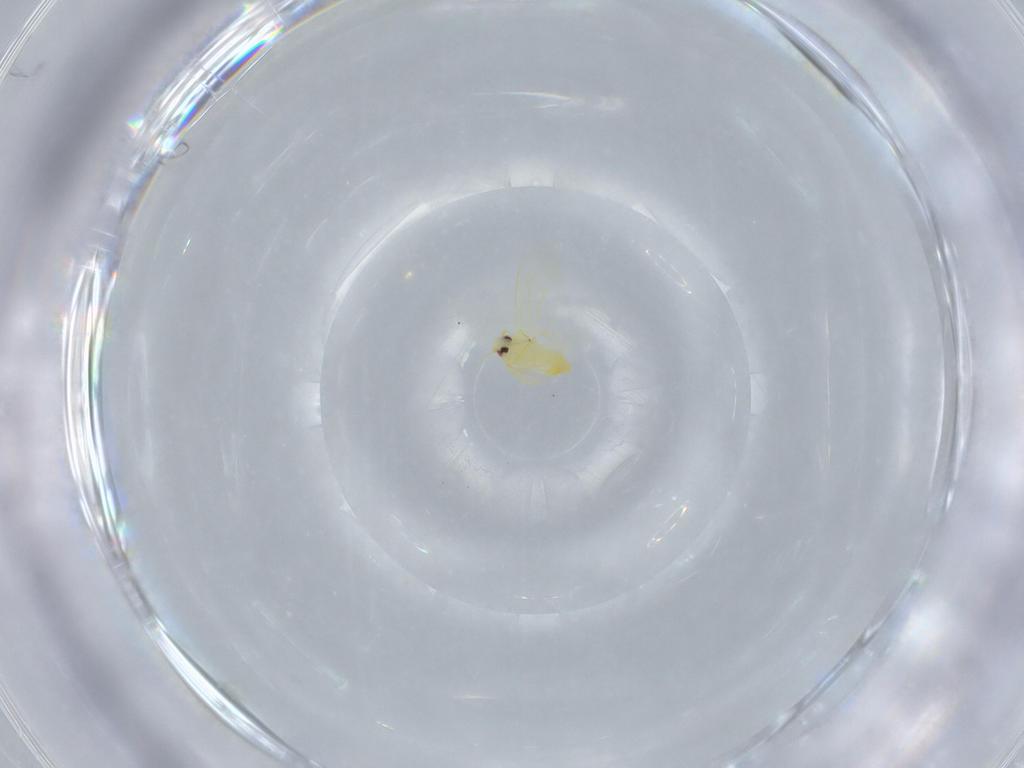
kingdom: Animalia
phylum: Arthropoda
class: Insecta
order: Hemiptera
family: Aleyrodidae
